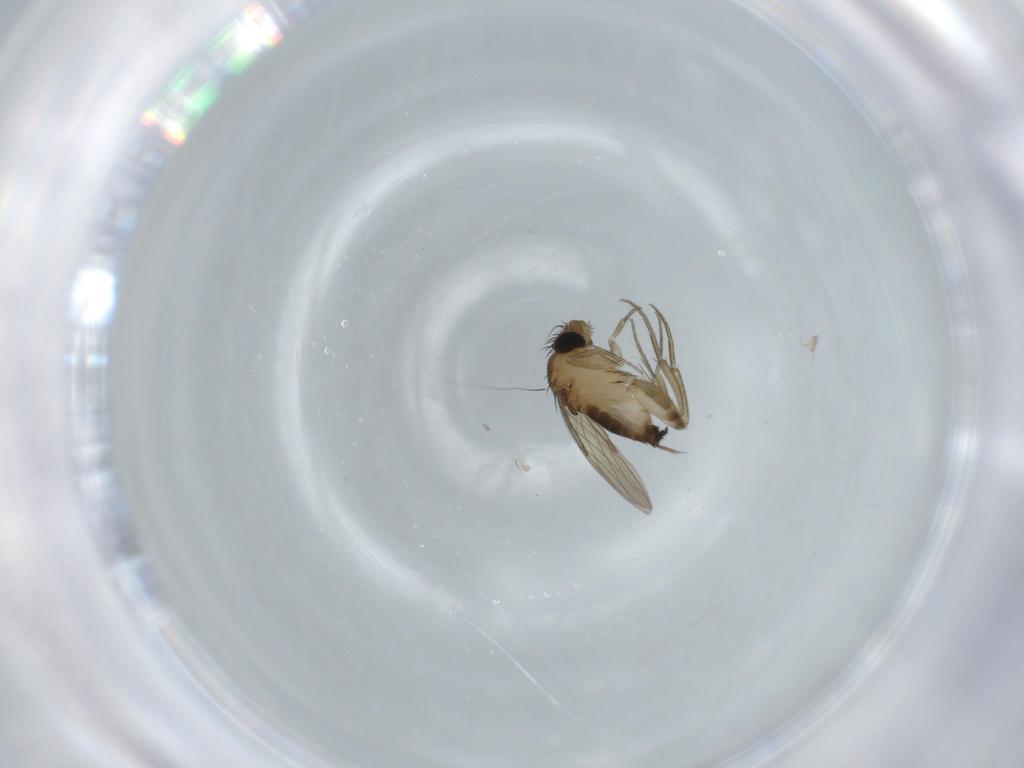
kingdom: Animalia
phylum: Arthropoda
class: Insecta
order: Diptera
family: Phoridae
